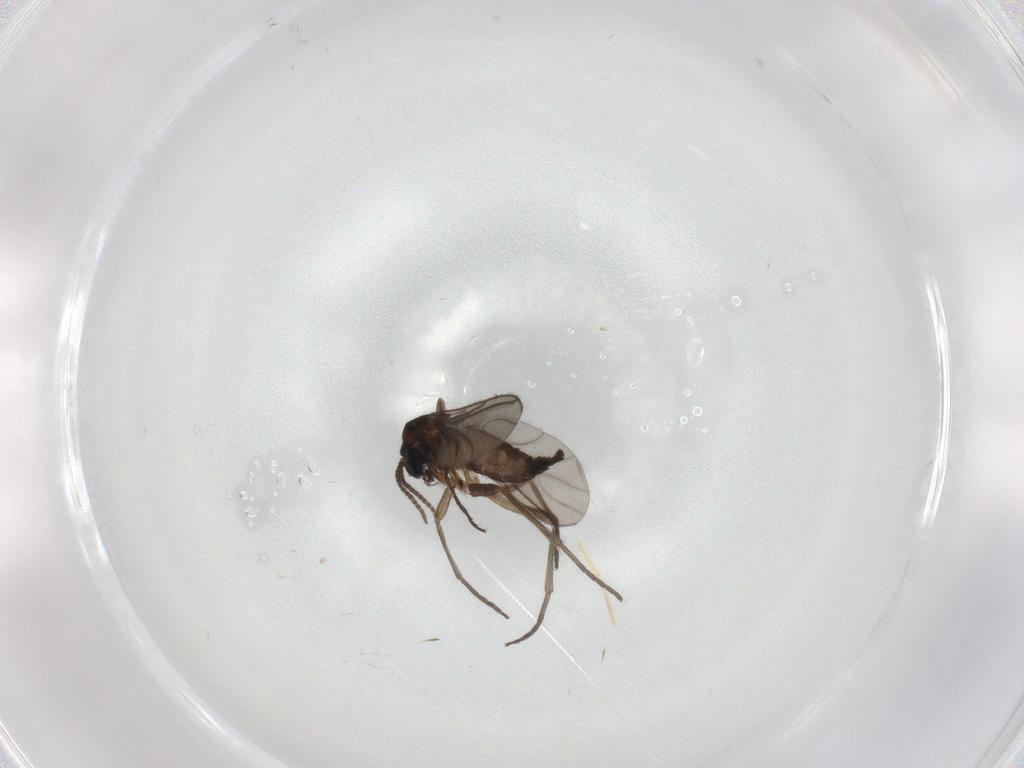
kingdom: Animalia
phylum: Arthropoda
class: Insecta
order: Diptera
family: Sciaridae
